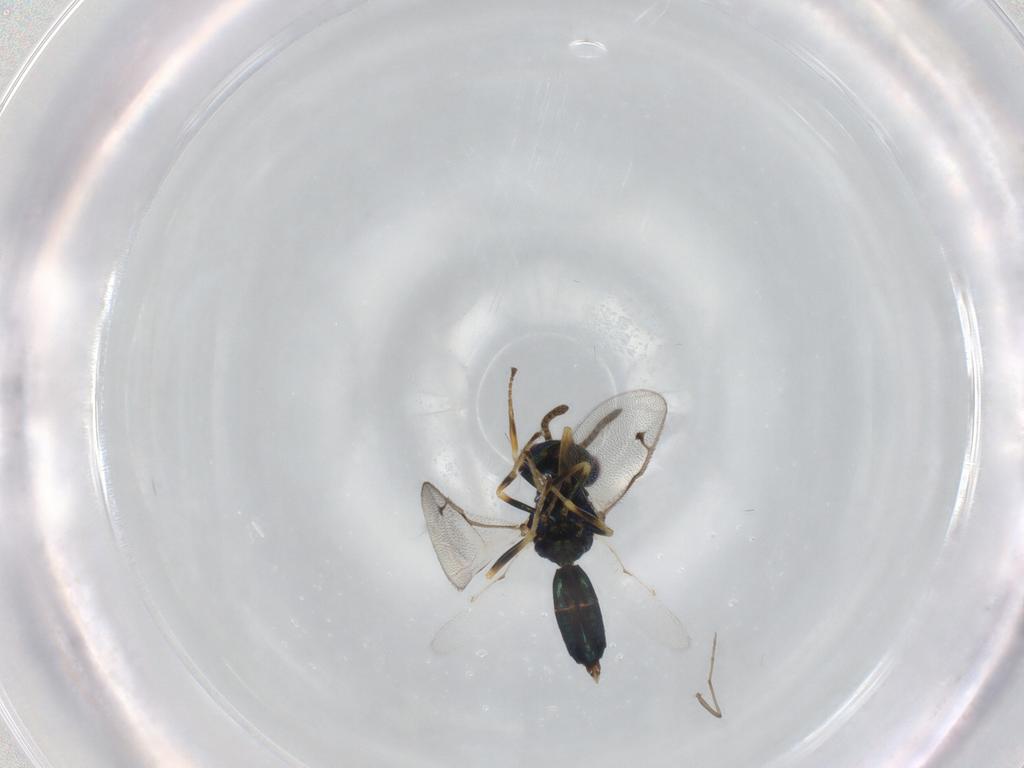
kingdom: Animalia
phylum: Arthropoda
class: Insecta
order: Hymenoptera
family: Pteromalidae
